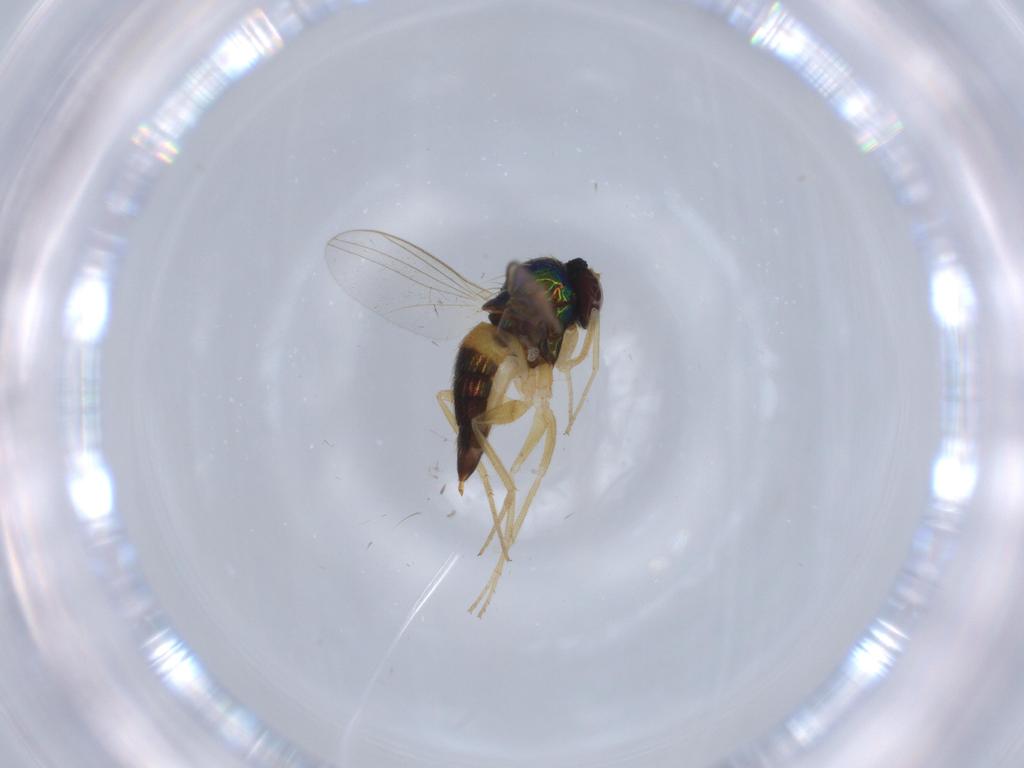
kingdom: Animalia
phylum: Arthropoda
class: Insecta
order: Diptera
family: Dolichopodidae
